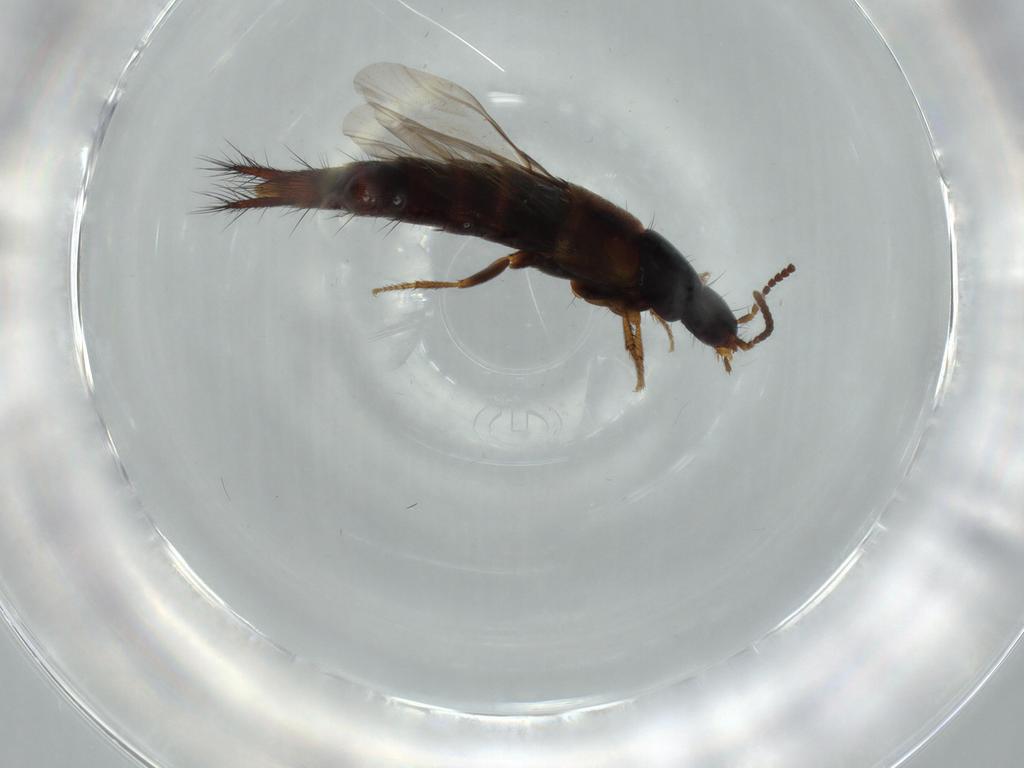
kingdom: Animalia
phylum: Arthropoda
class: Insecta
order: Coleoptera
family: Staphylinidae
